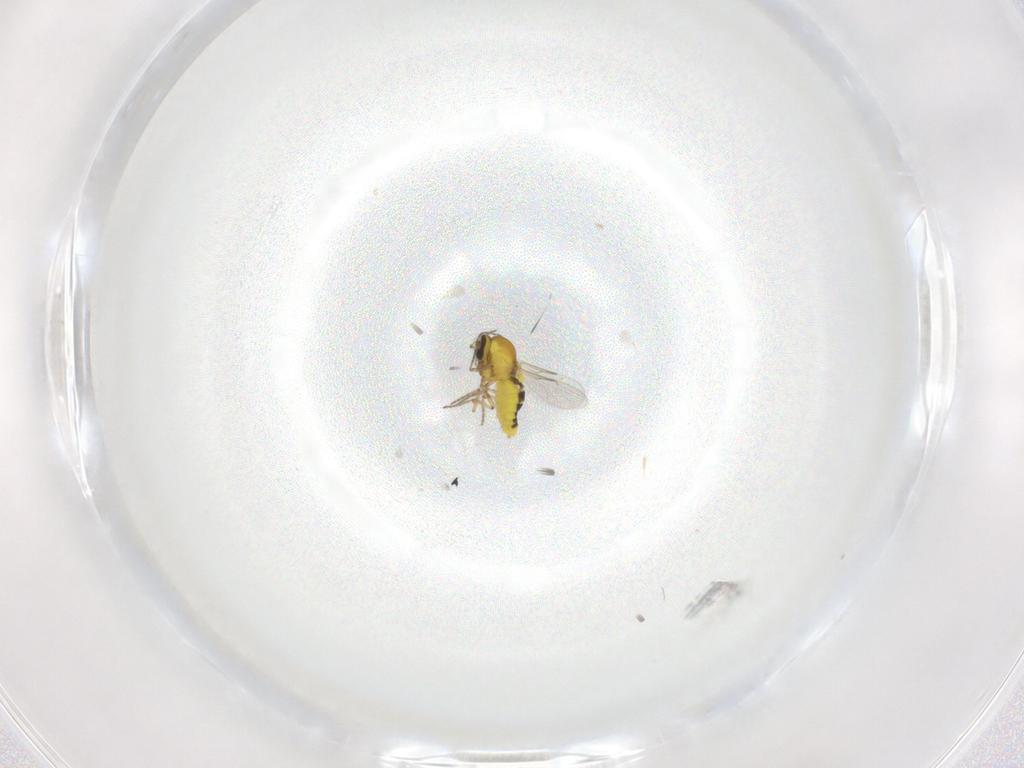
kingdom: Animalia
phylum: Arthropoda
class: Insecta
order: Diptera
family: Ceratopogonidae
